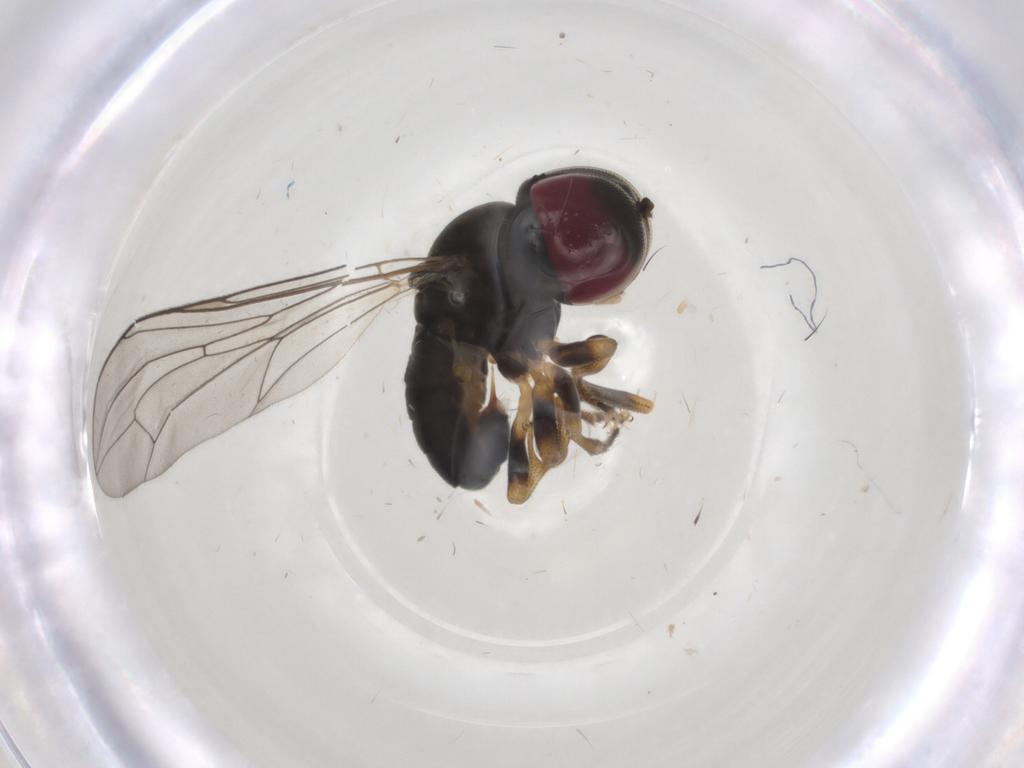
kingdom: Animalia
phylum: Arthropoda
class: Insecta
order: Diptera
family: Pipunculidae
